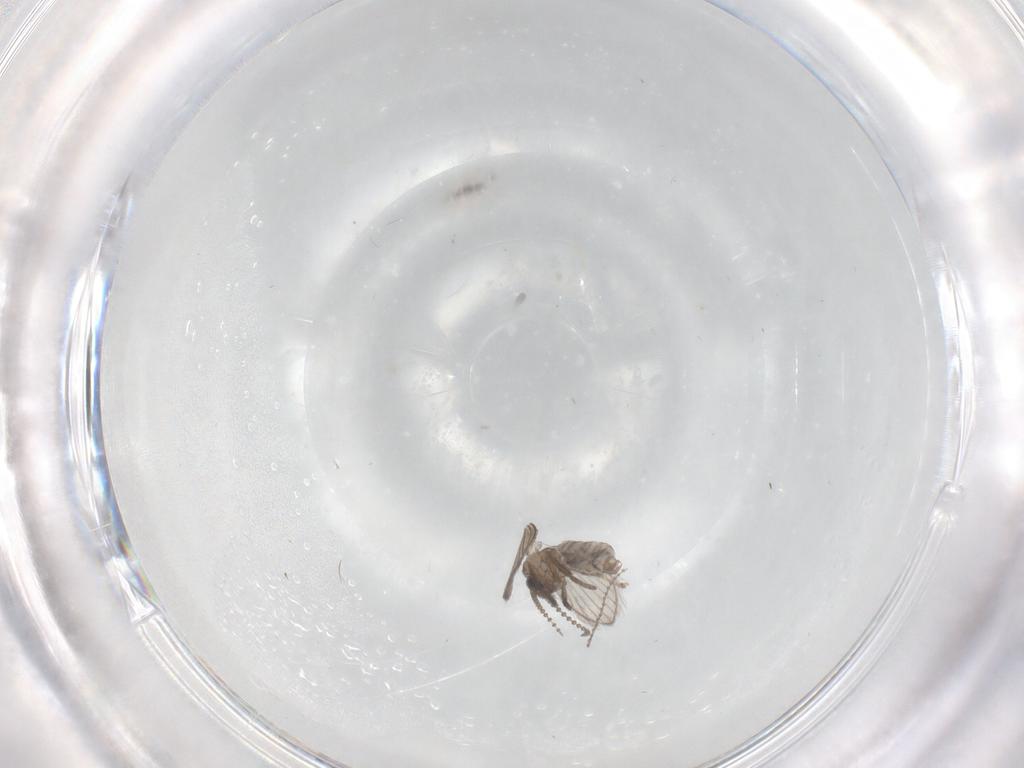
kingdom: Animalia
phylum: Arthropoda
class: Insecta
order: Diptera
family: Psychodidae
